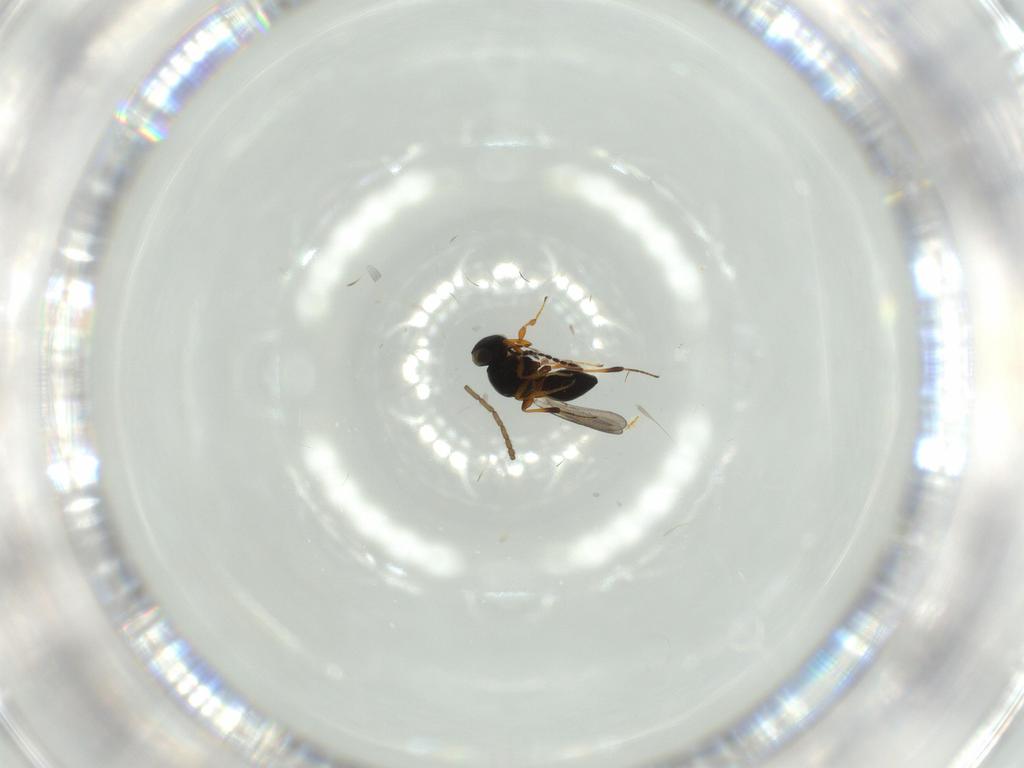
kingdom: Animalia
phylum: Arthropoda
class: Insecta
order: Hymenoptera
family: Platygastridae
